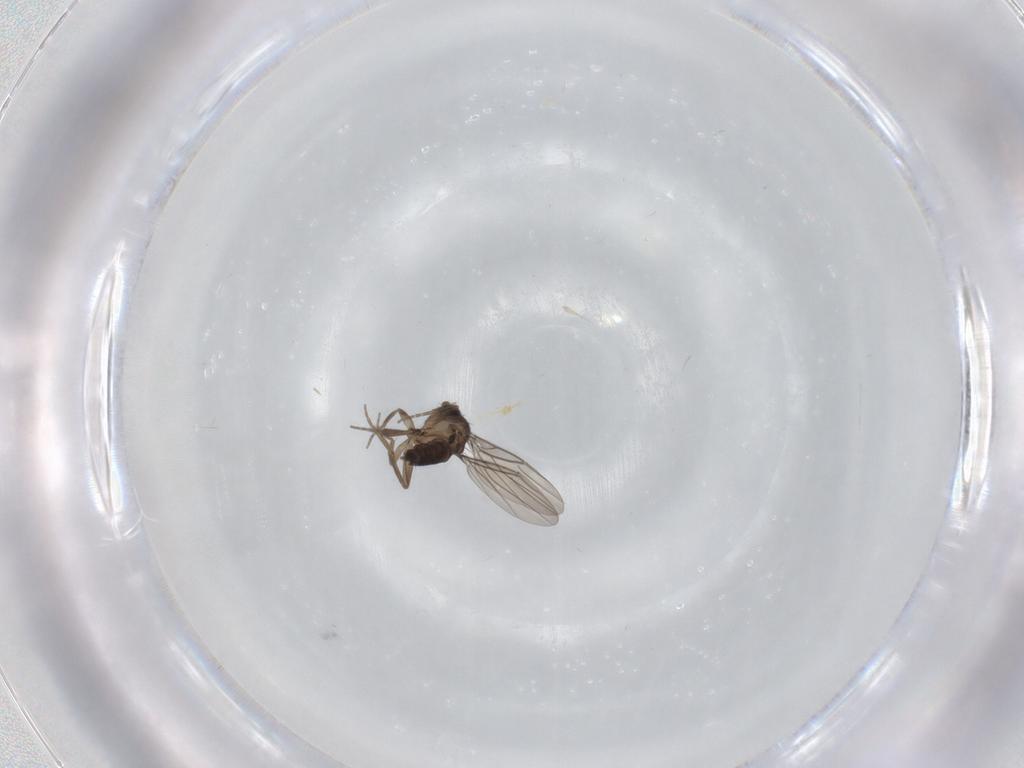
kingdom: Animalia
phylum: Arthropoda
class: Insecta
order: Diptera
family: Phoridae
